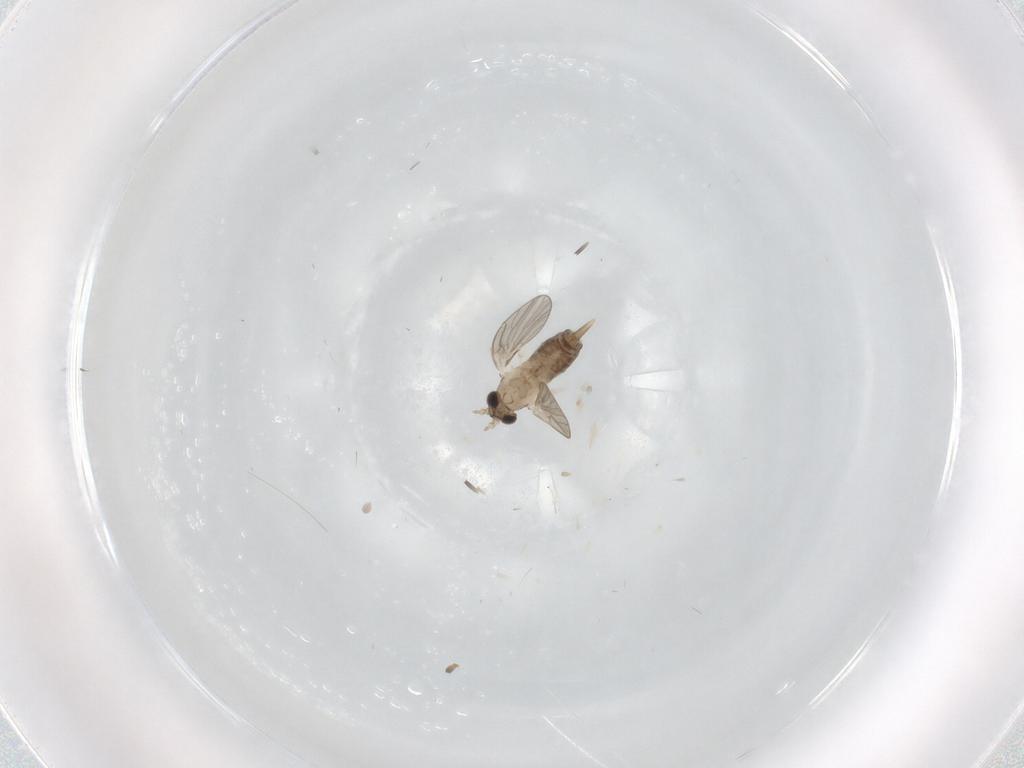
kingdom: Animalia
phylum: Arthropoda
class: Insecta
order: Diptera
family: Psychodidae
